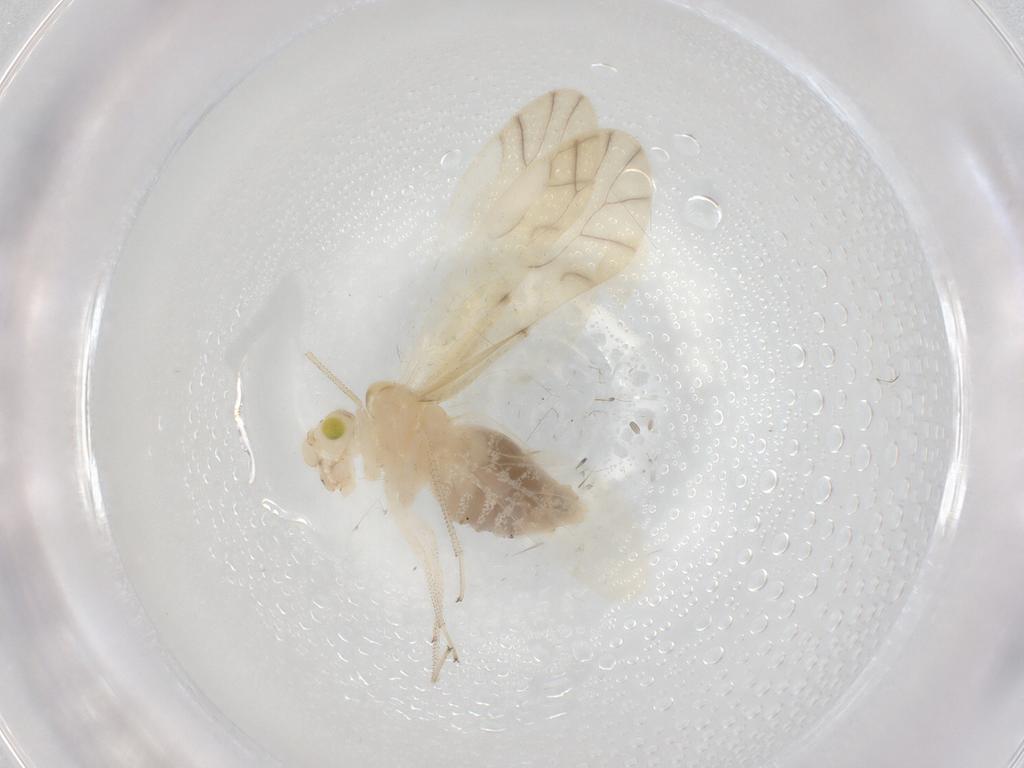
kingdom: Animalia
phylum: Arthropoda
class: Insecta
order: Psocodea
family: Caeciliusidae
